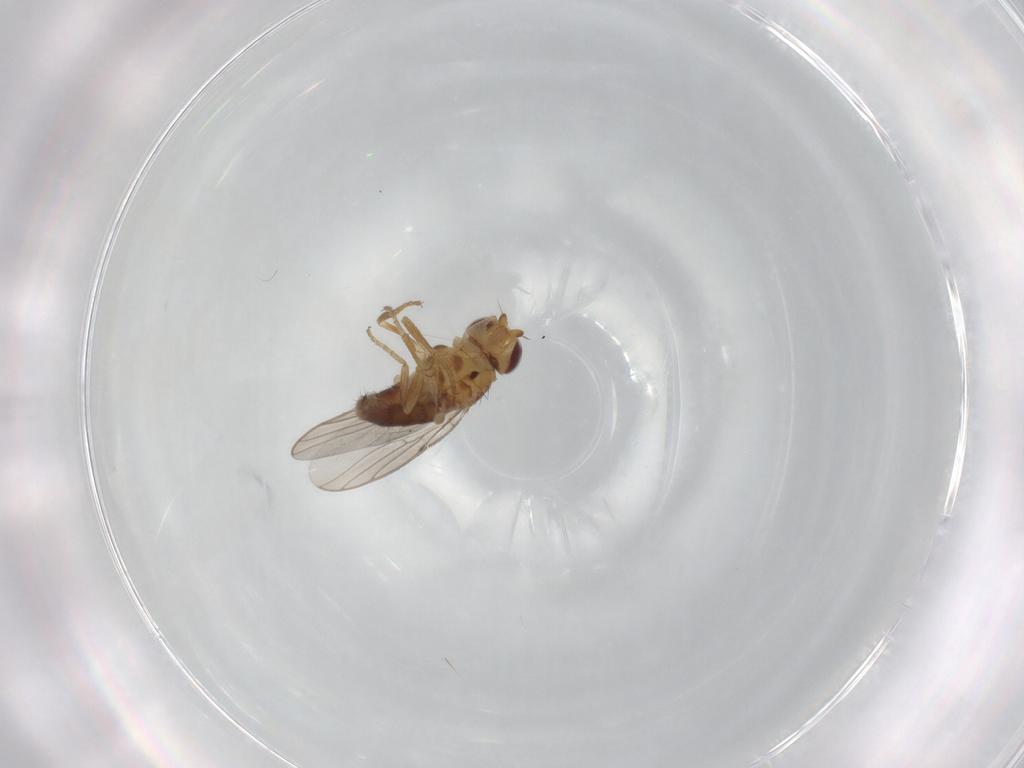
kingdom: Animalia
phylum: Arthropoda
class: Insecta
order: Diptera
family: Chloropidae
